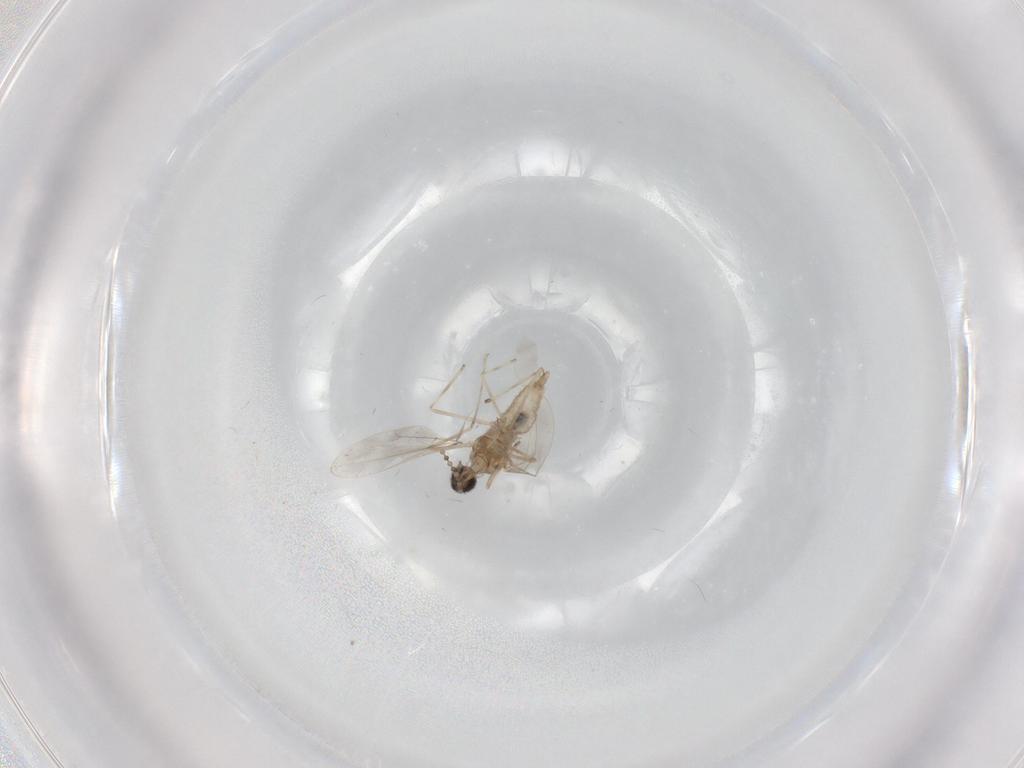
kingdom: Animalia
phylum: Arthropoda
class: Insecta
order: Diptera
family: Cecidomyiidae
